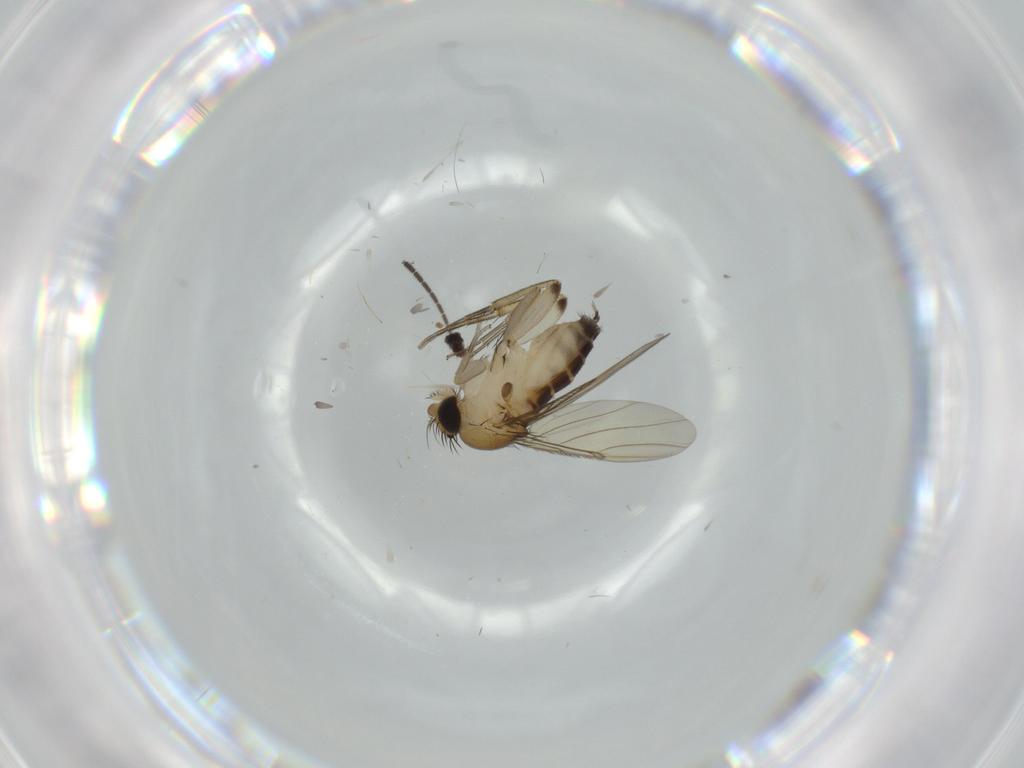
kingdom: Animalia
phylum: Arthropoda
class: Insecta
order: Diptera
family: Phoridae
